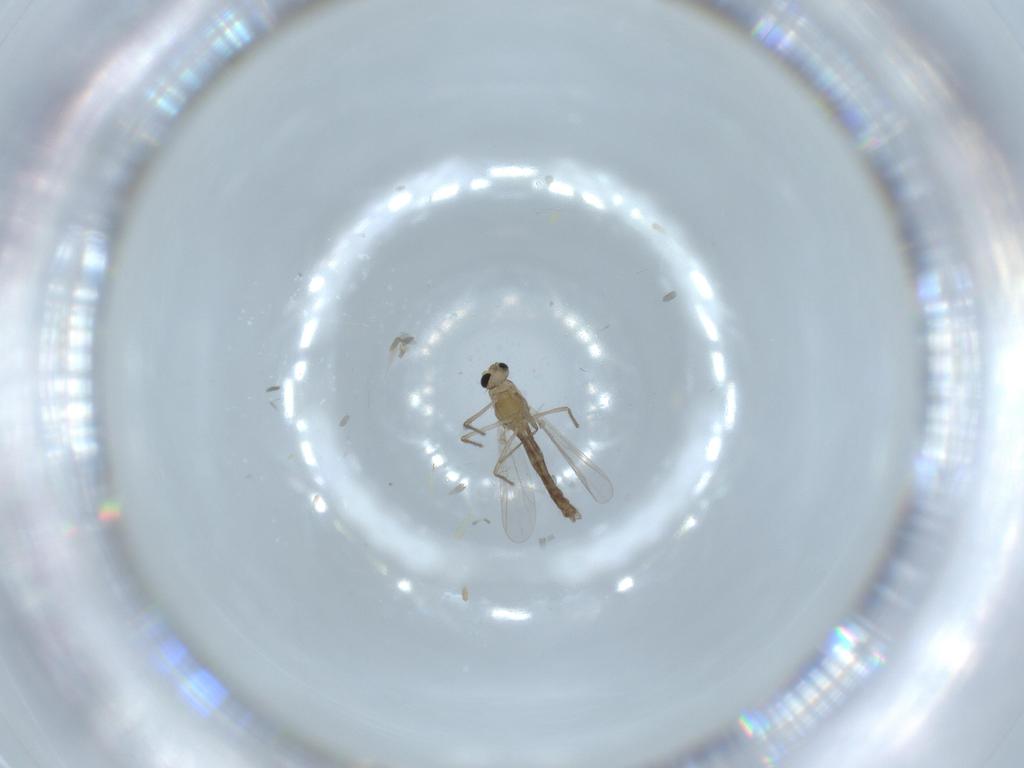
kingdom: Animalia
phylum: Arthropoda
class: Insecta
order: Diptera
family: Chironomidae
